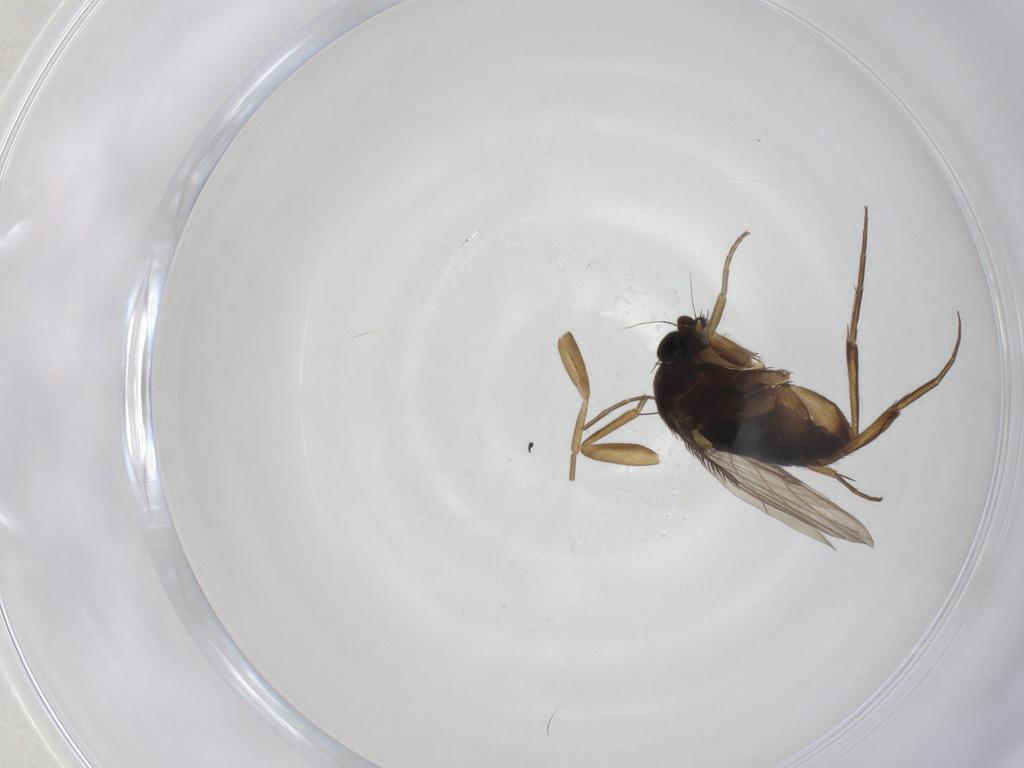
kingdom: Animalia
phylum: Arthropoda
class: Insecta
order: Diptera
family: Phoridae
